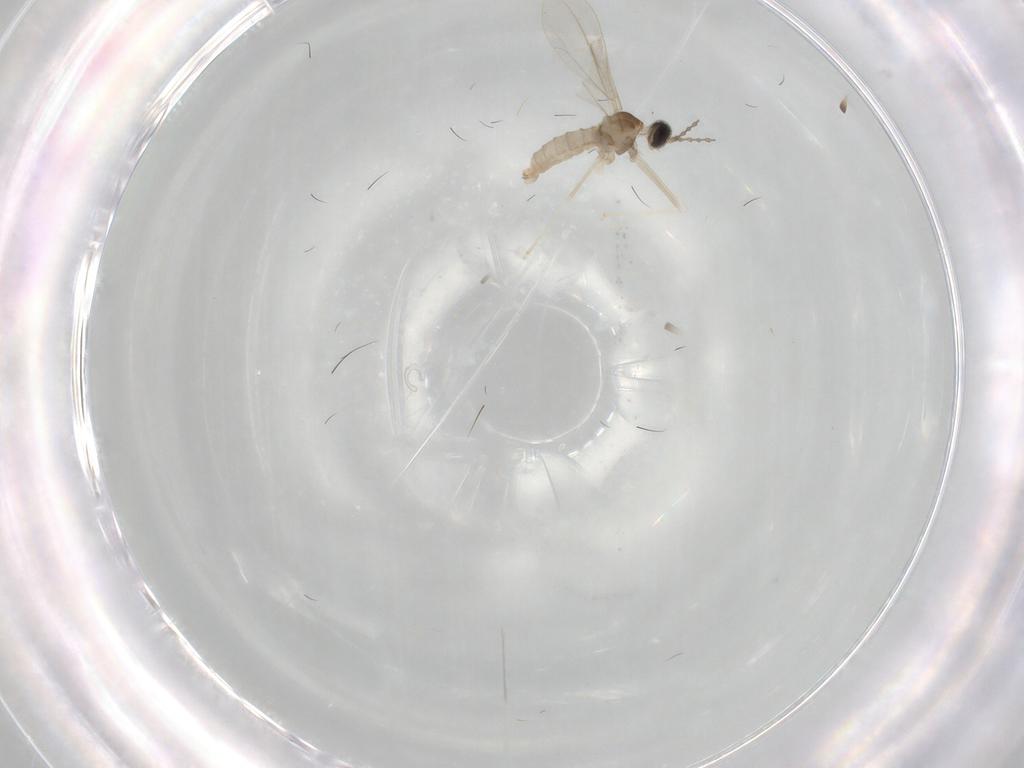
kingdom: Animalia
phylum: Arthropoda
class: Insecta
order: Diptera
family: Cecidomyiidae
